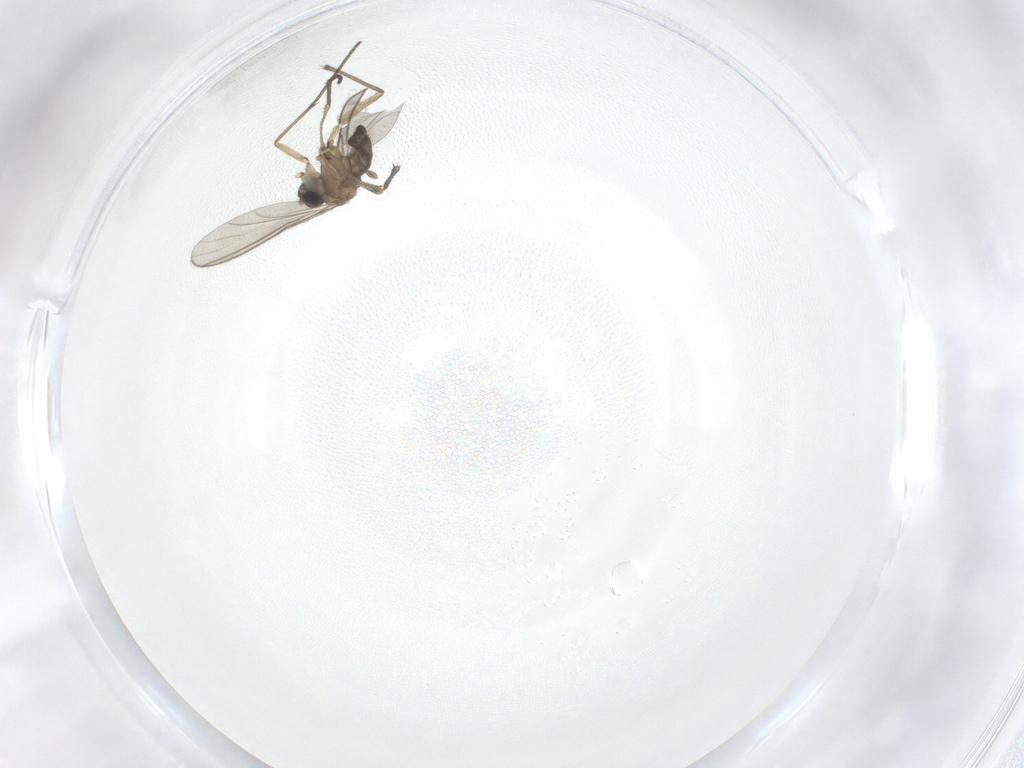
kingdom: Animalia
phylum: Arthropoda
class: Insecta
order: Diptera
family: Sciaridae
